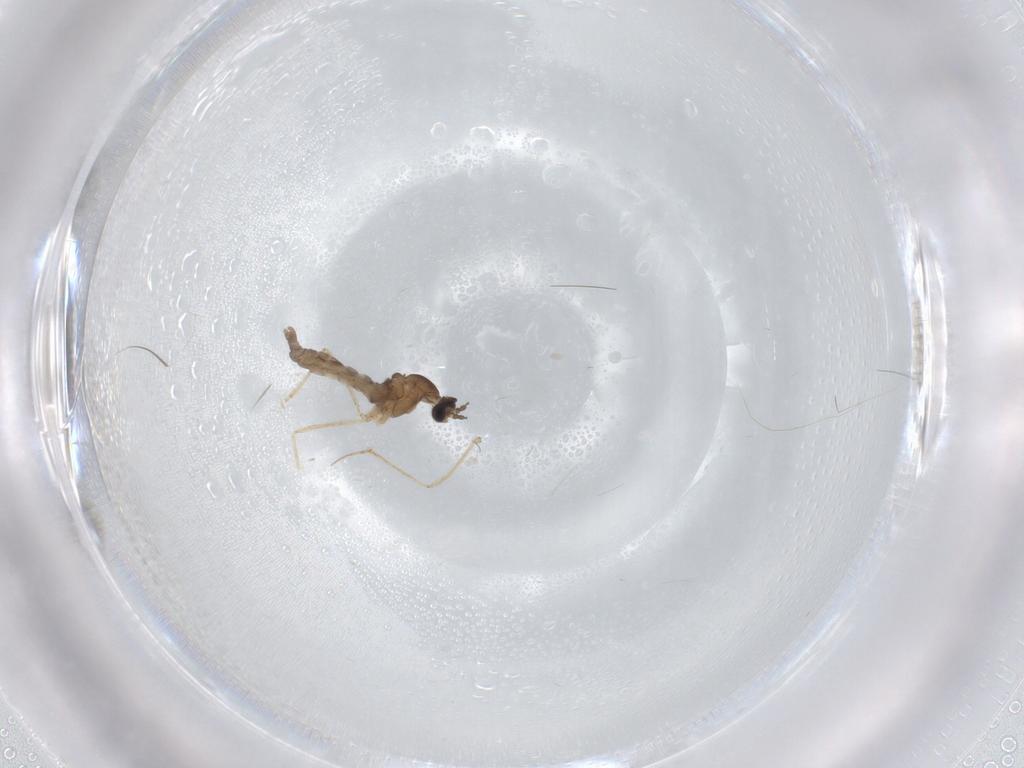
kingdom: Animalia
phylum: Arthropoda
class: Insecta
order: Diptera
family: Cecidomyiidae
